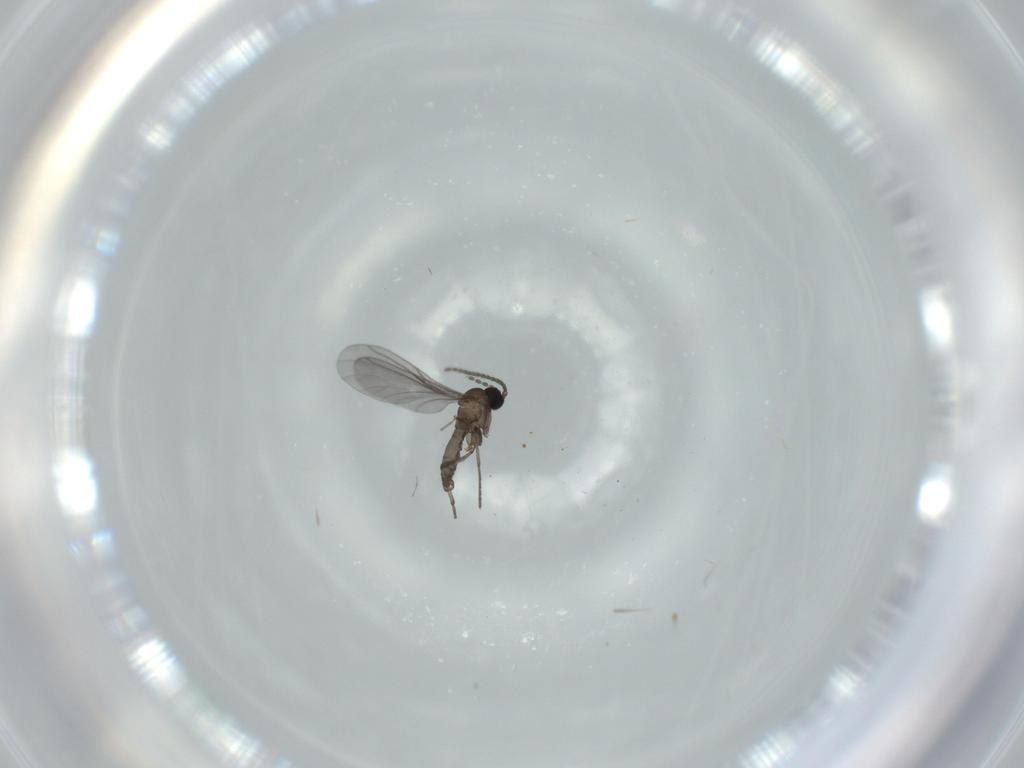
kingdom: Animalia
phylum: Arthropoda
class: Insecta
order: Diptera
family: Sciaridae
